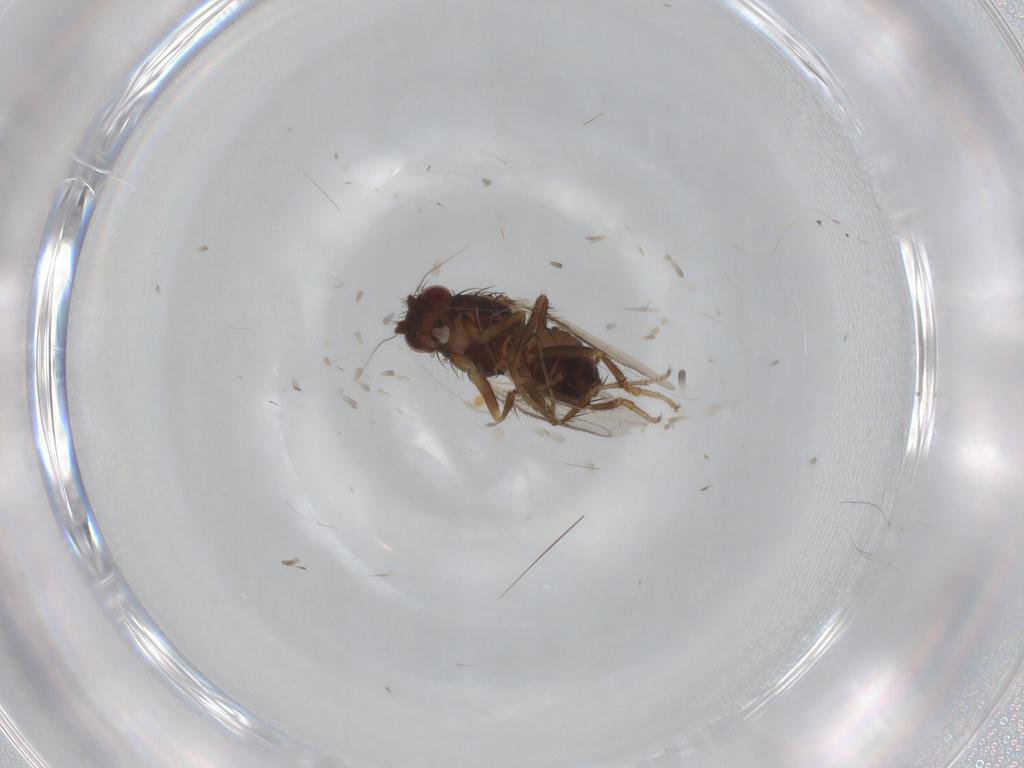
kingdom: Animalia
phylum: Arthropoda
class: Insecta
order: Diptera
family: Sphaeroceridae
